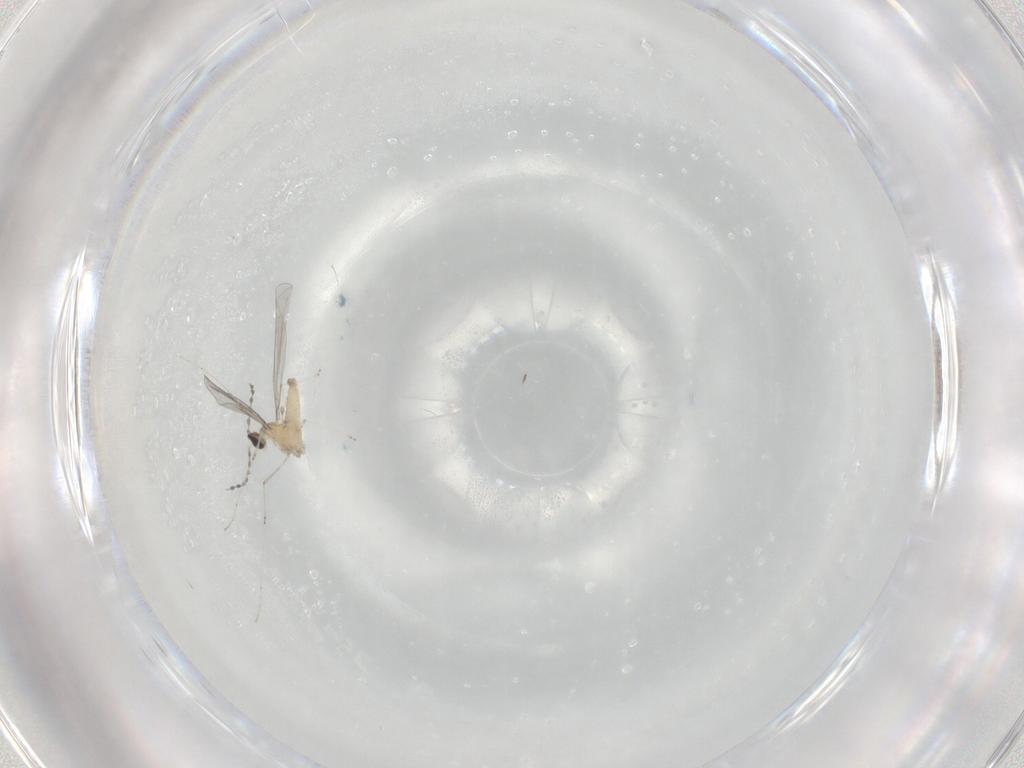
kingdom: Animalia
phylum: Arthropoda
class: Insecta
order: Diptera
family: Cecidomyiidae
